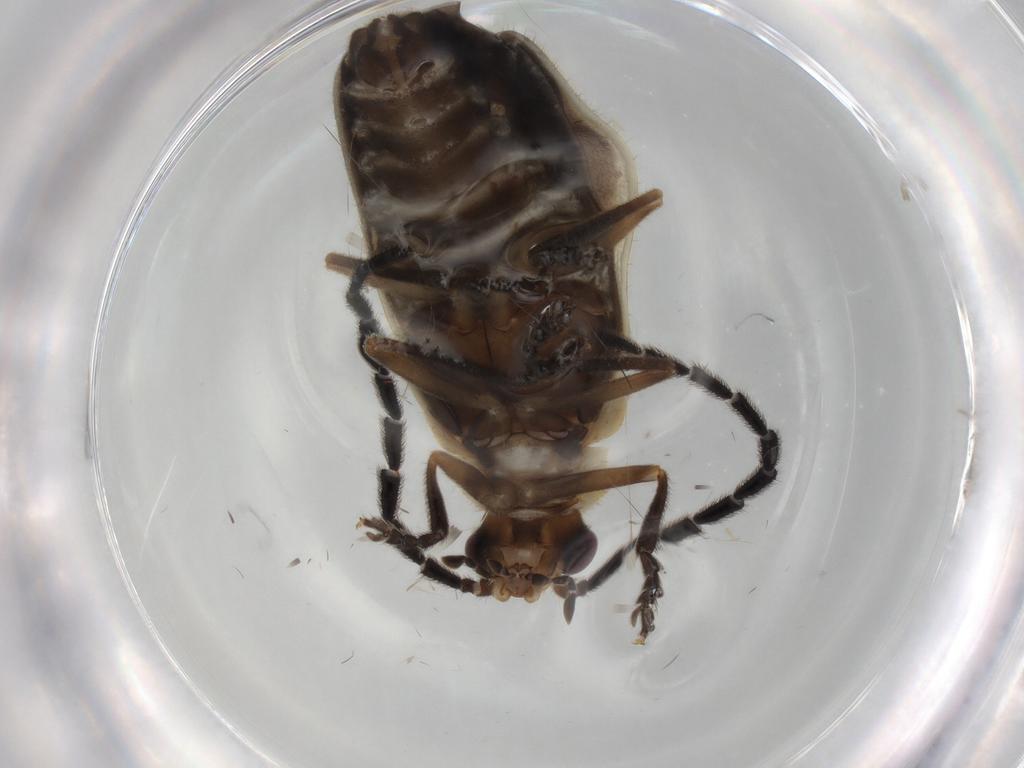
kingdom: Animalia
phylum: Arthropoda
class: Insecta
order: Coleoptera
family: Cantharidae
